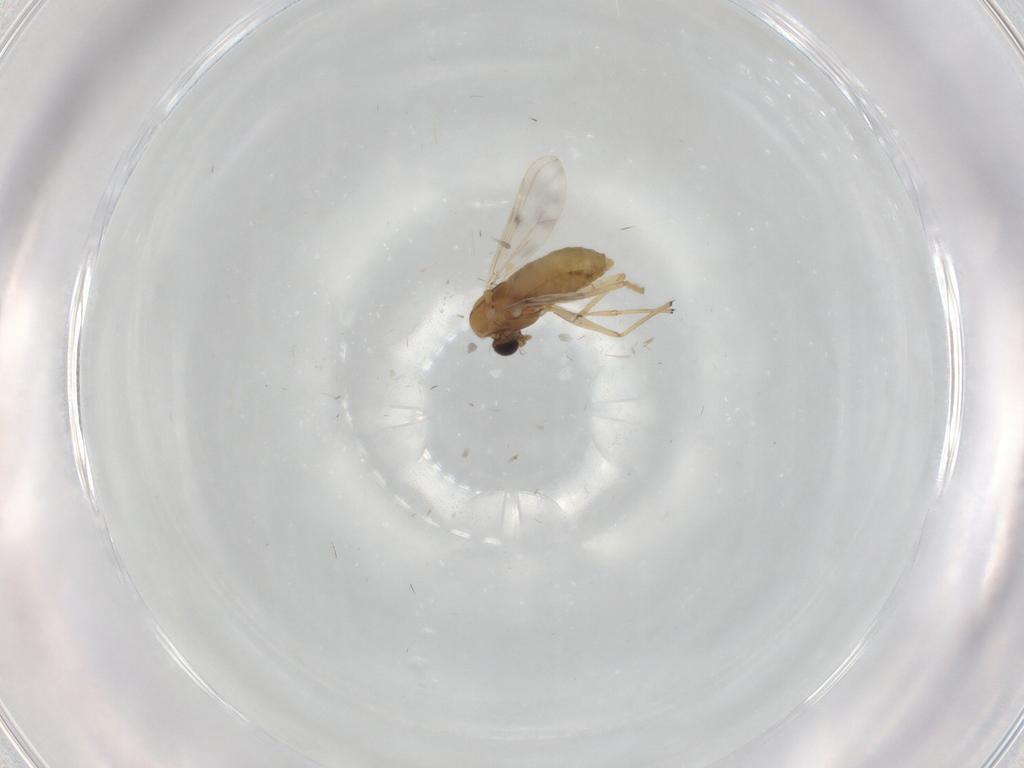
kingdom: Animalia
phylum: Arthropoda
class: Insecta
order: Diptera
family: Chironomidae
